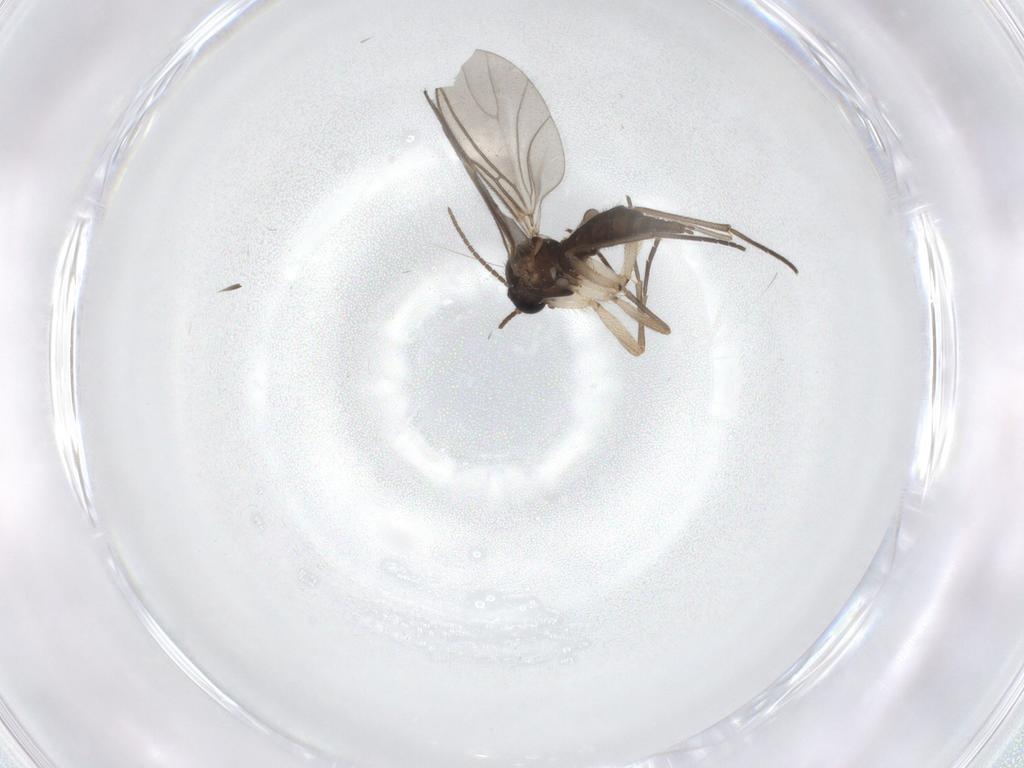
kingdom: Animalia
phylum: Arthropoda
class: Insecta
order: Diptera
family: Chironomidae
